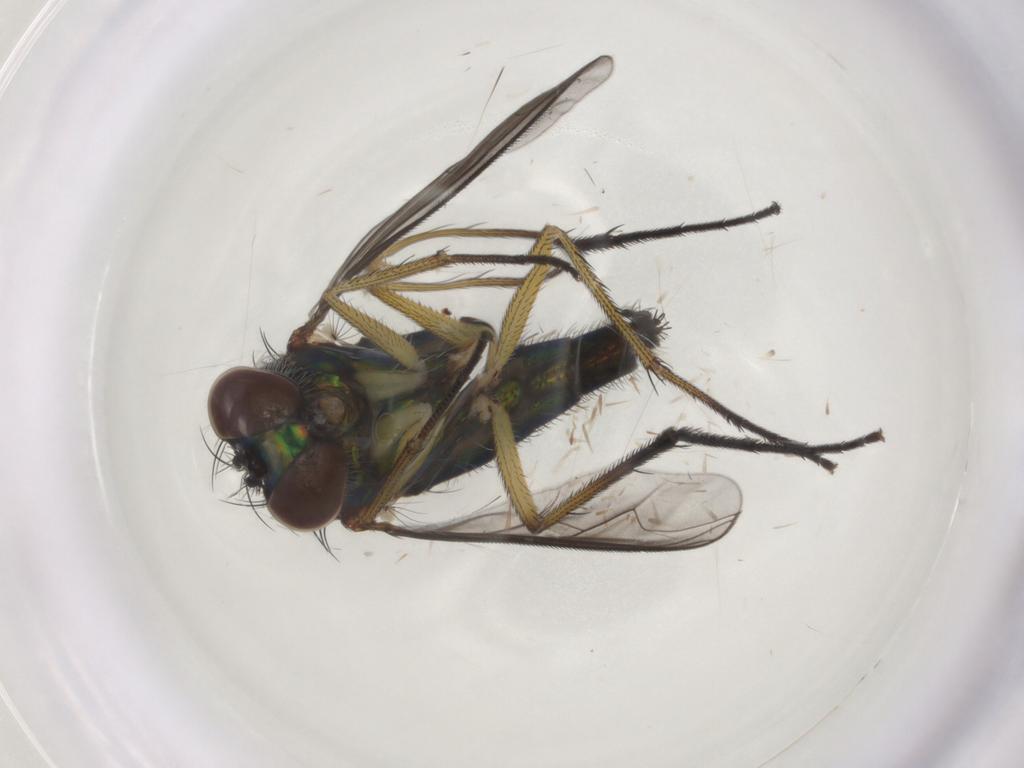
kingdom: Animalia
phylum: Arthropoda
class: Insecta
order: Diptera
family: Dolichopodidae
